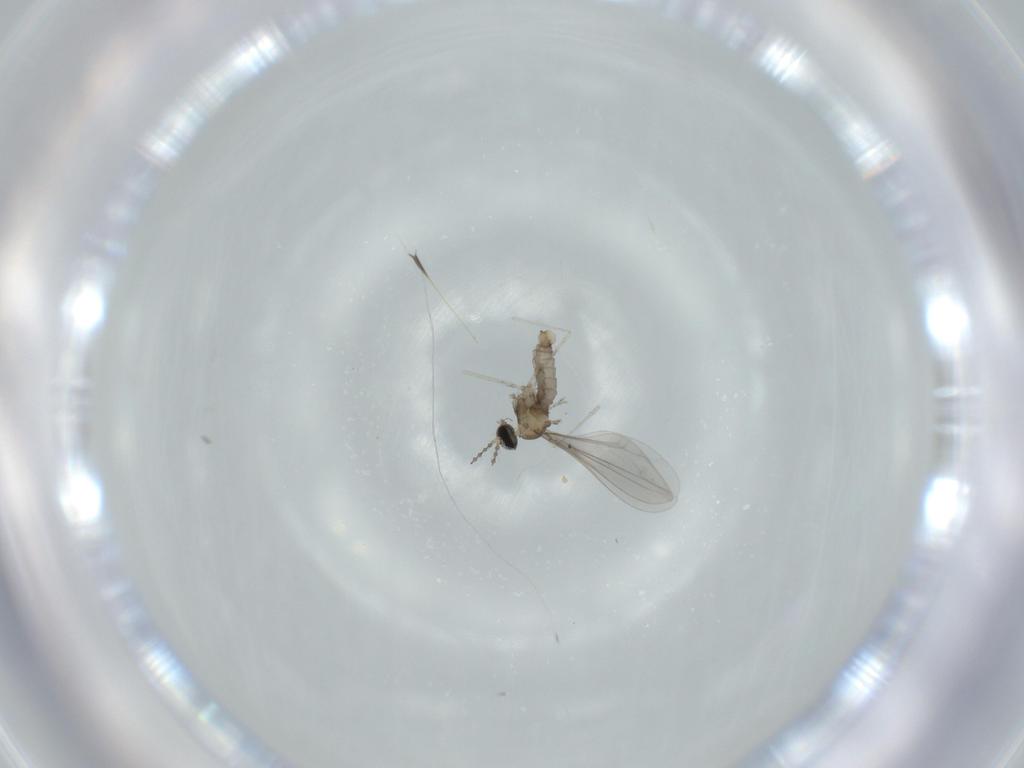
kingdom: Animalia
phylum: Arthropoda
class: Insecta
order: Diptera
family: Cecidomyiidae
